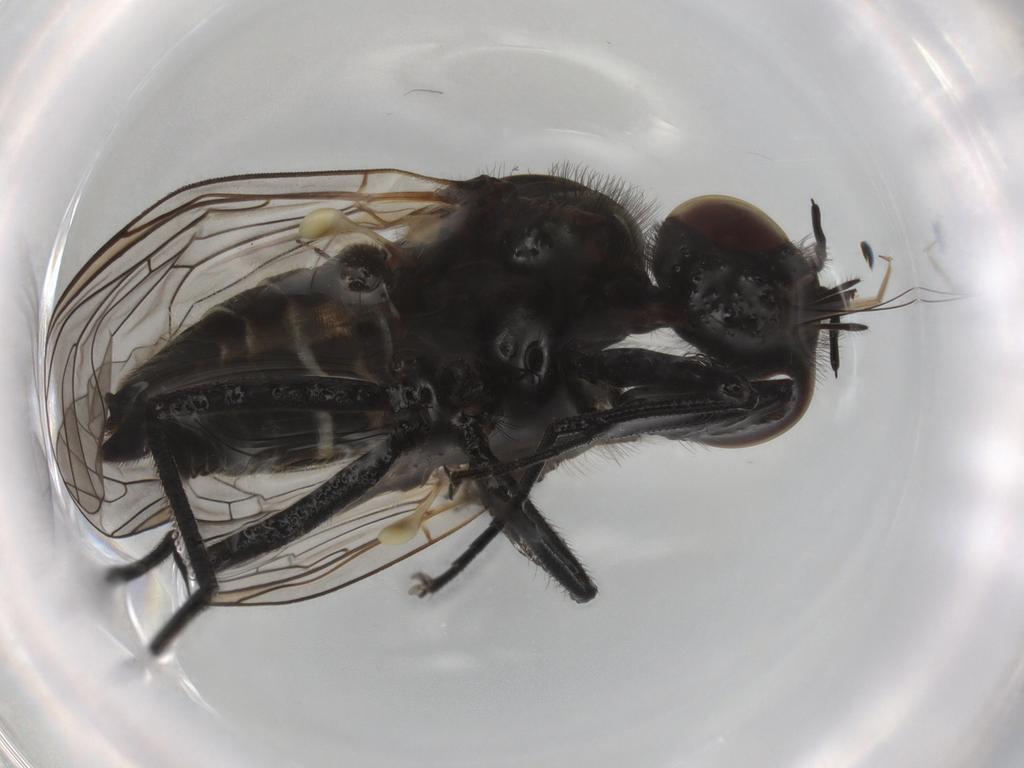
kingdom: Animalia
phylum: Arthropoda
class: Insecta
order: Diptera
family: Bombyliidae
